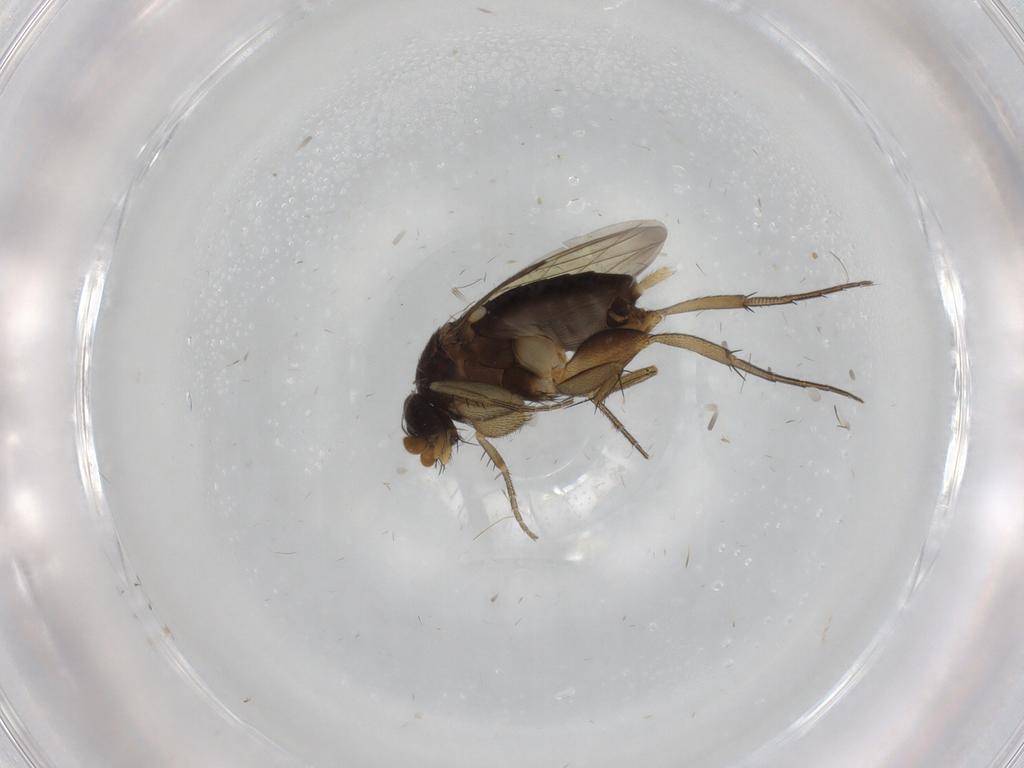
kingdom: Animalia
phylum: Arthropoda
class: Insecta
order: Diptera
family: Phoridae
